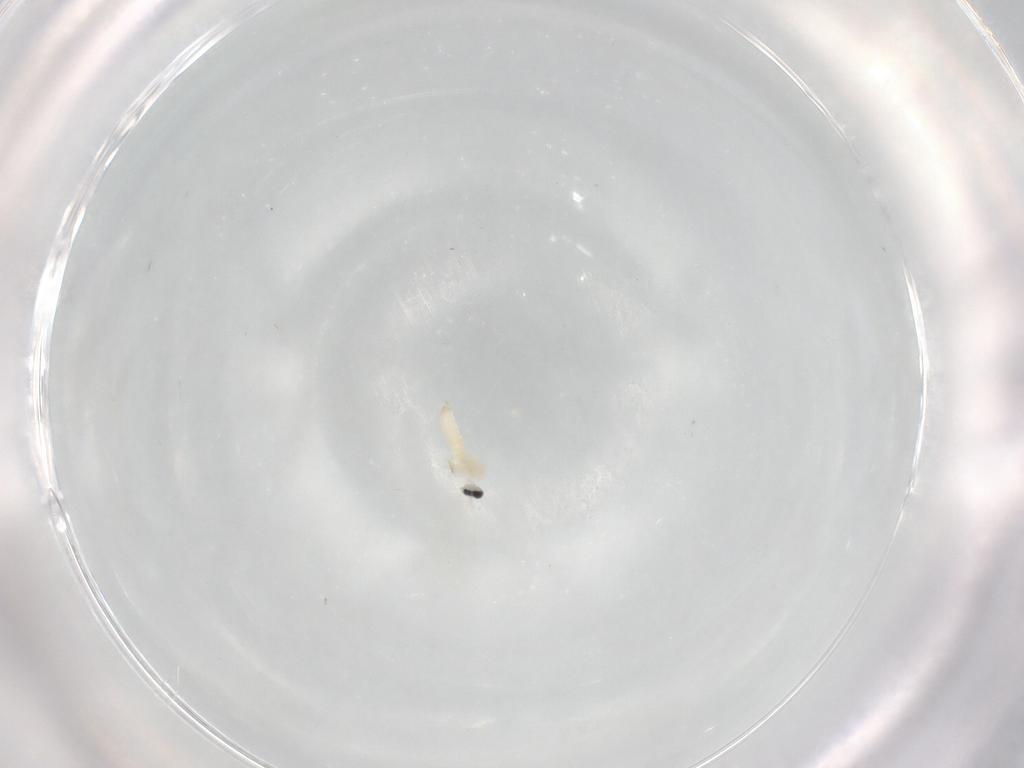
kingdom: Animalia
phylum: Arthropoda
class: Insecta
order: Diptera
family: Cecidomyiidae
